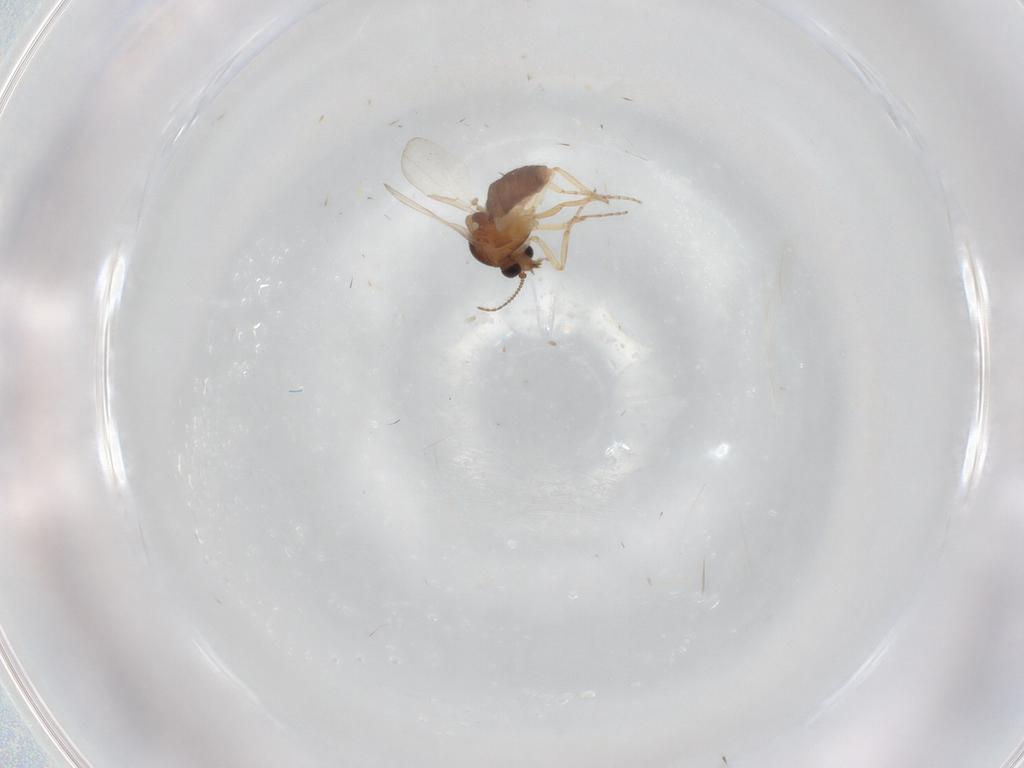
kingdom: Animalia
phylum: Arthropoda
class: Insecta
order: Diptera
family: Ceratopogonidae
